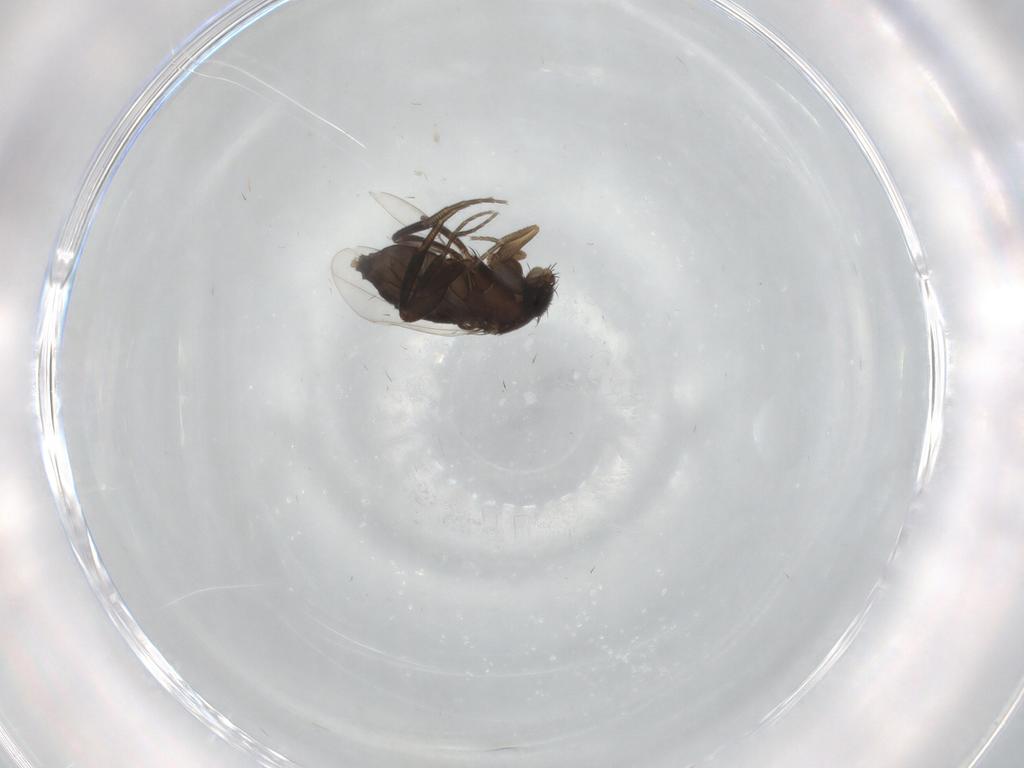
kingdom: Animalia
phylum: Arthropoda
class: Insecta
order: Diptera
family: Phoridae
